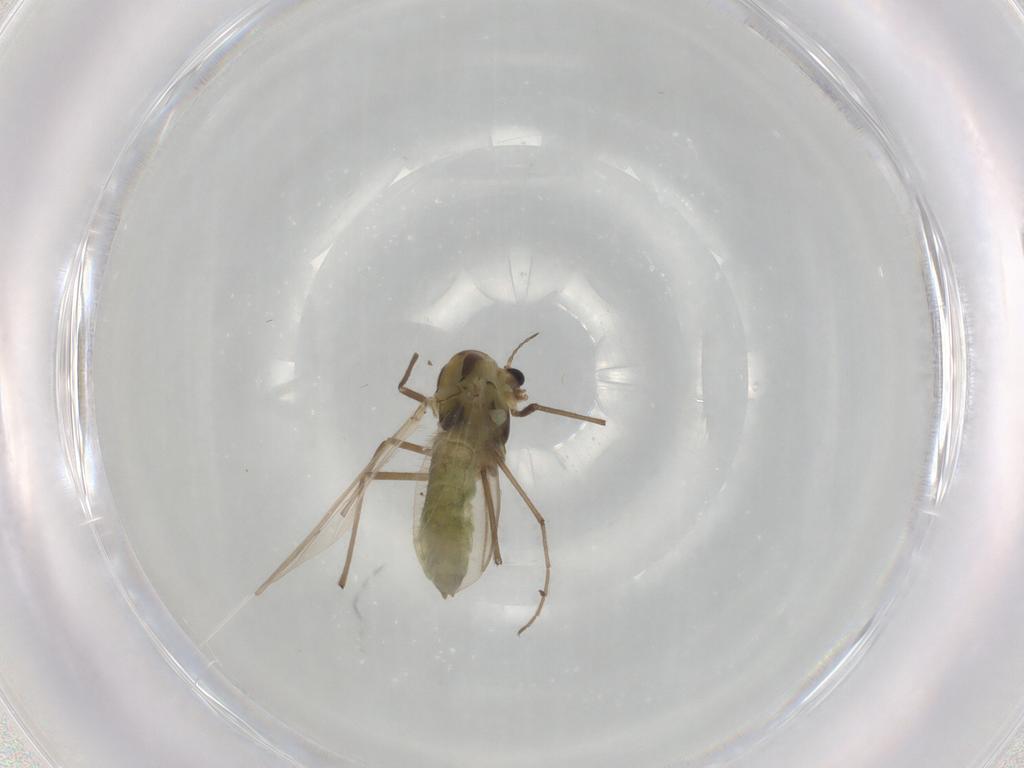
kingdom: Animalia
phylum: Arthropoda
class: Insecta
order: Diptera
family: Chironomidae
